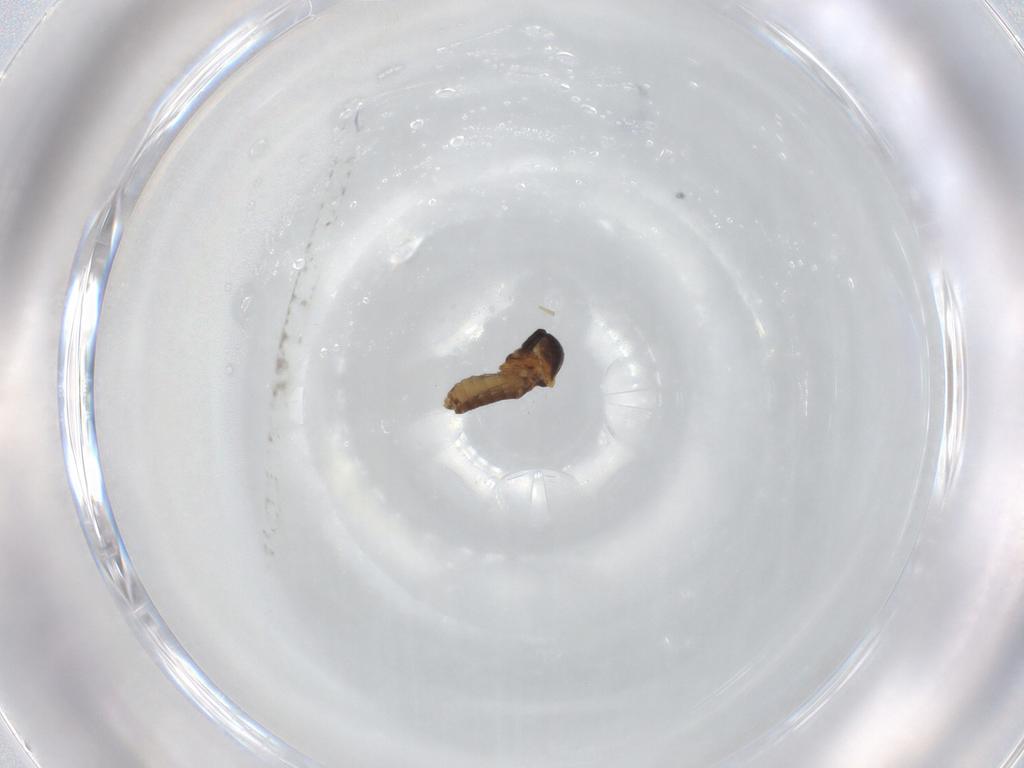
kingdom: Animalia
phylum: Arthropoda
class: Insecta
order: Diptera
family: Ceratopogonidae
